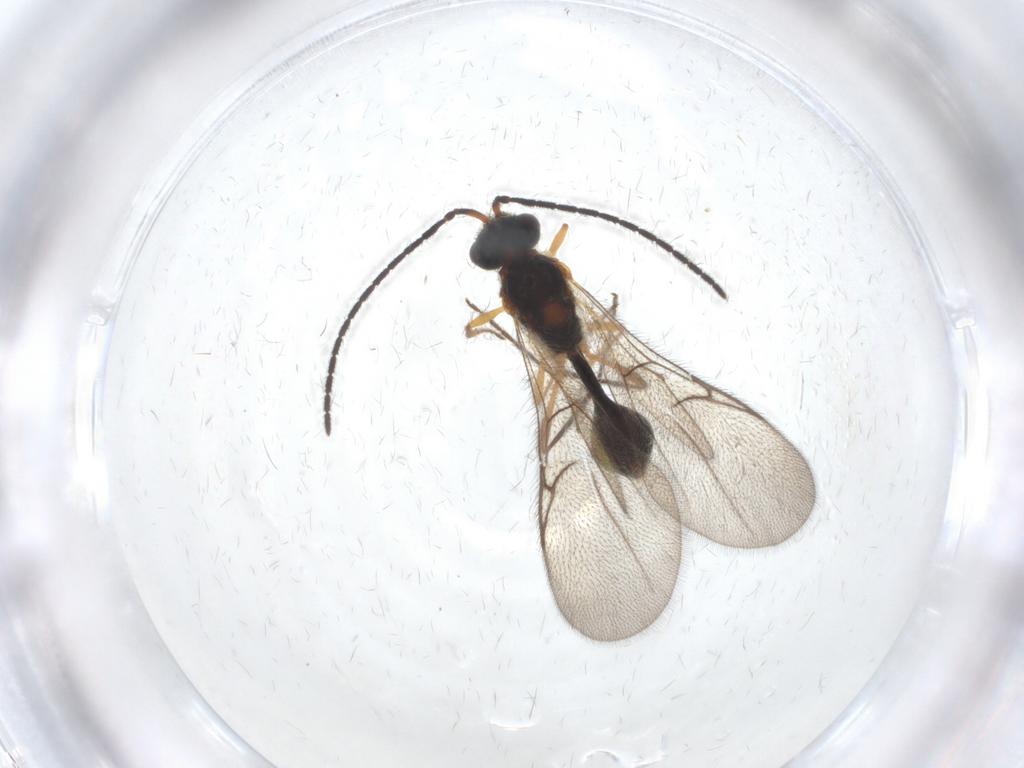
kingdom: Animalia
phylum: Arthropoda
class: Insecta
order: Hymenoptera
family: Diapriidae
